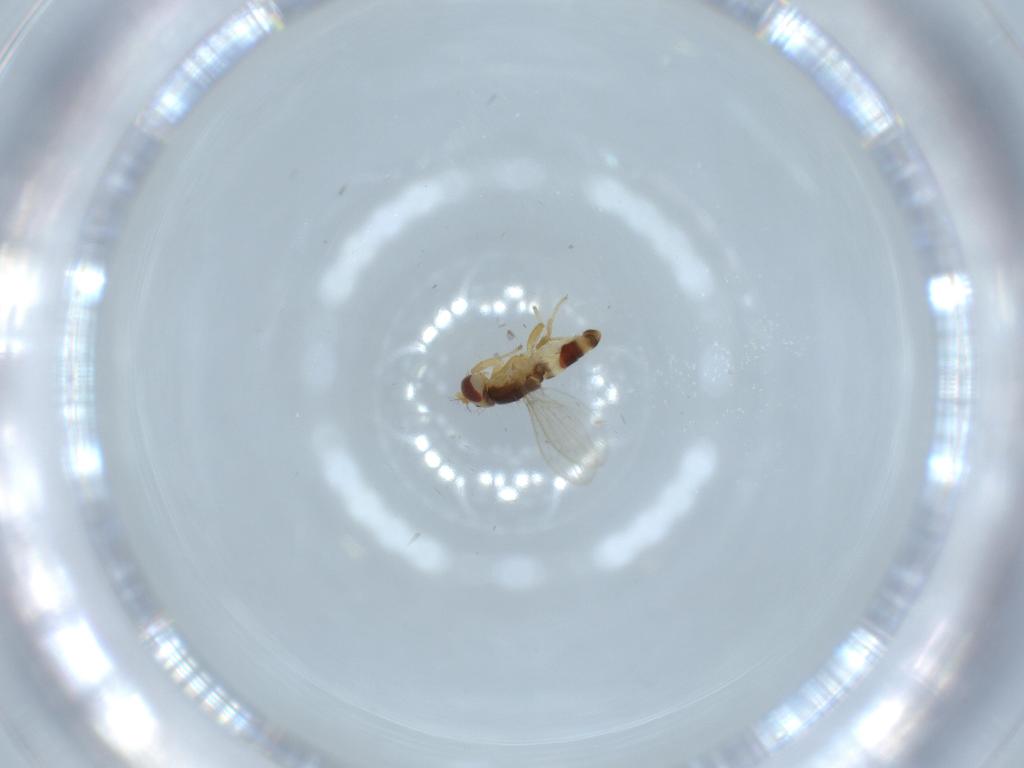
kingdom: Animalia
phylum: Arthropoda
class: Insecta
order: Diptera
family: Periscelididae
